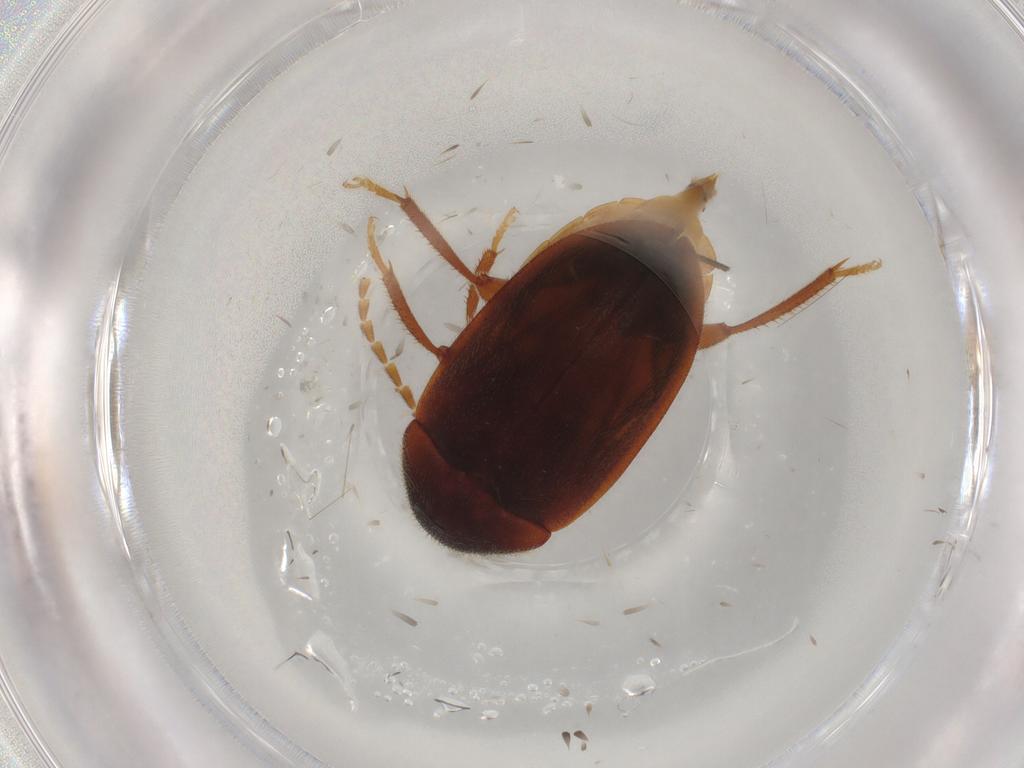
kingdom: Animalia
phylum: Arthropoda
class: Insecta
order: Coleoptera
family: Ptilodactylidae
